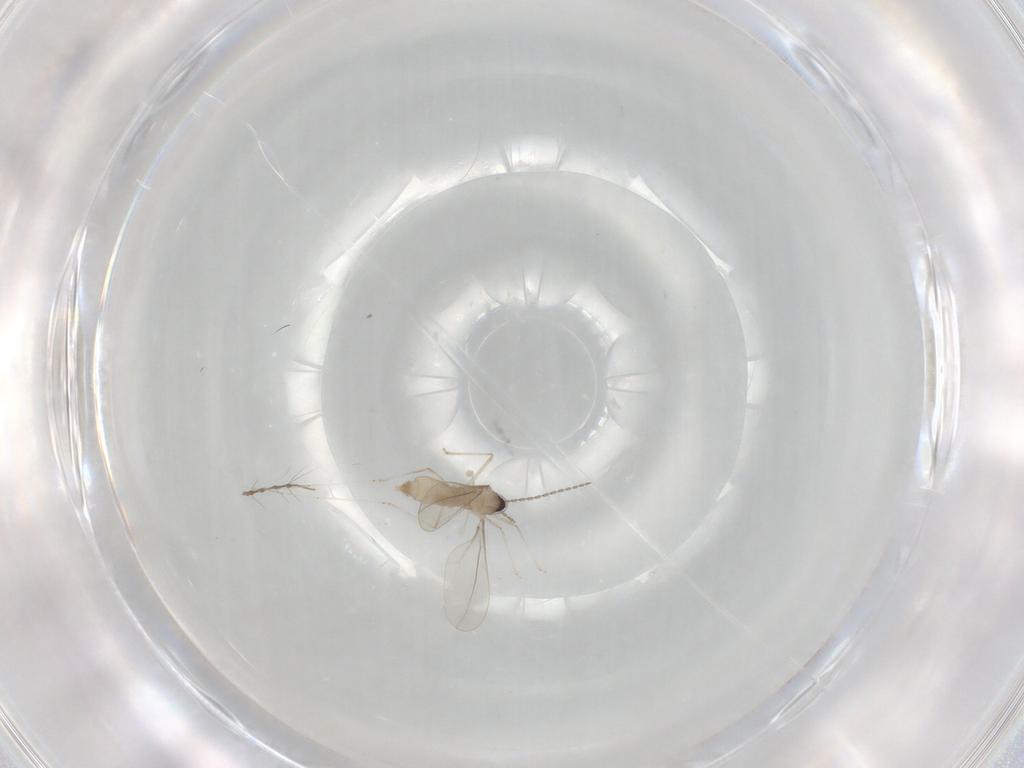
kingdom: Animalia
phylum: Arthropoda
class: Insecta
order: Diptera
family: Cecidomyiidae
